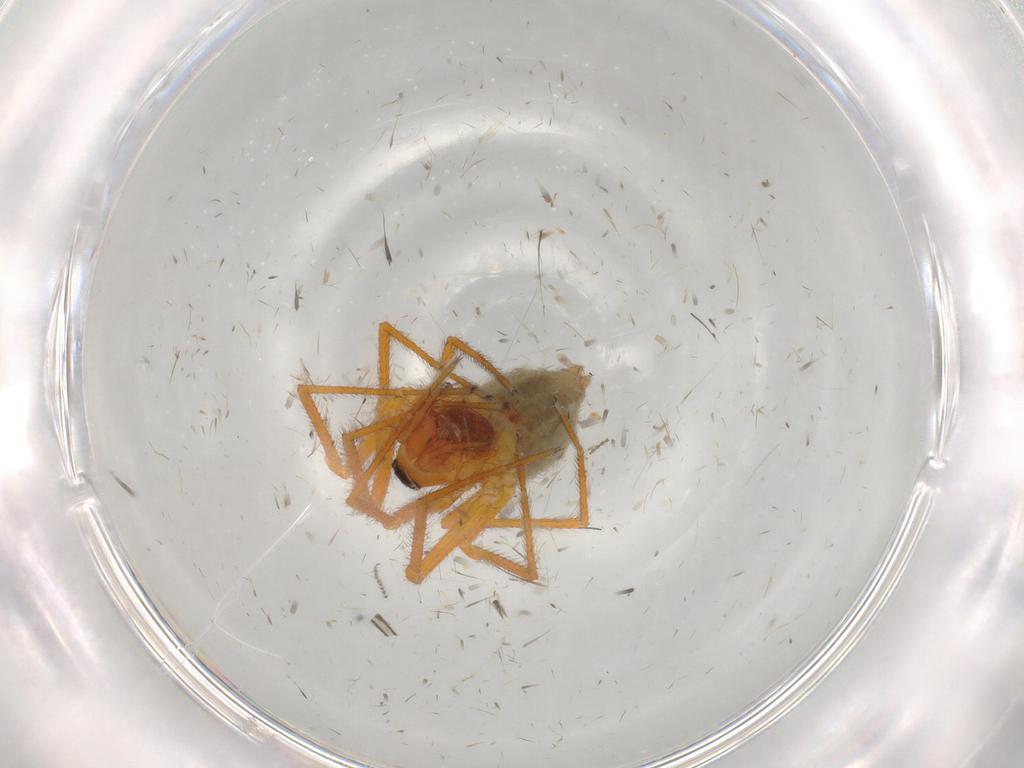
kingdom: Animalia
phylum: Arthropoda
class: Arachnida
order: Araneae
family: Linyphiidae
